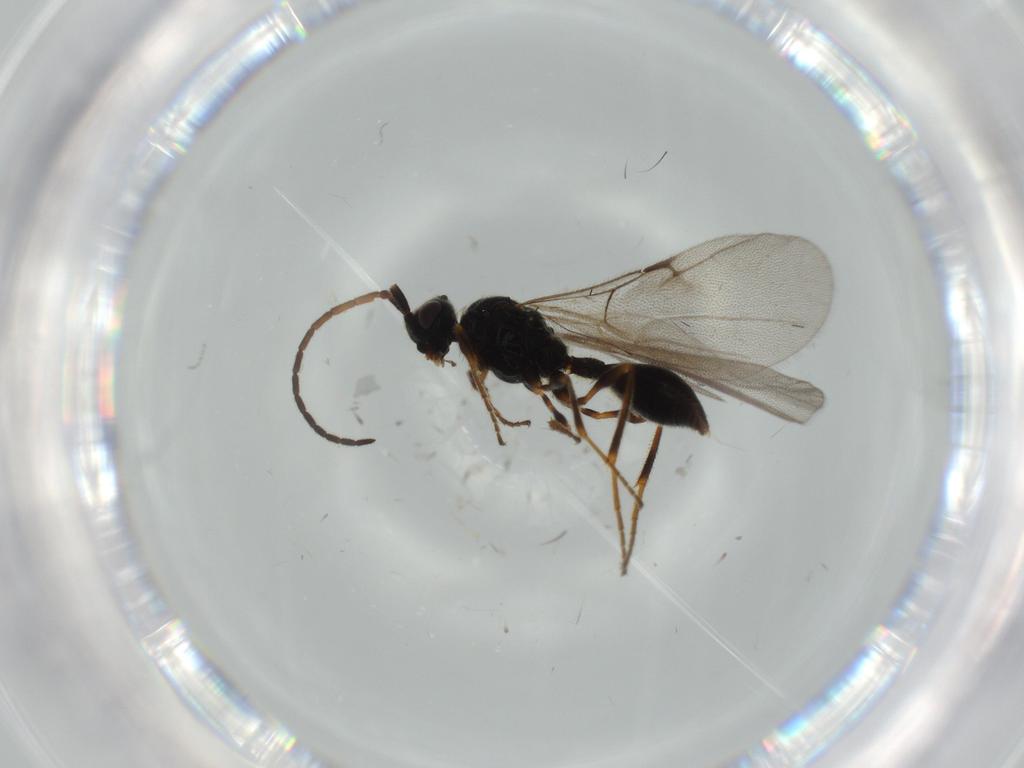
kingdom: Animalia
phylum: Arthropoda
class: Insecta
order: Hymenoptera
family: Diapriidae
